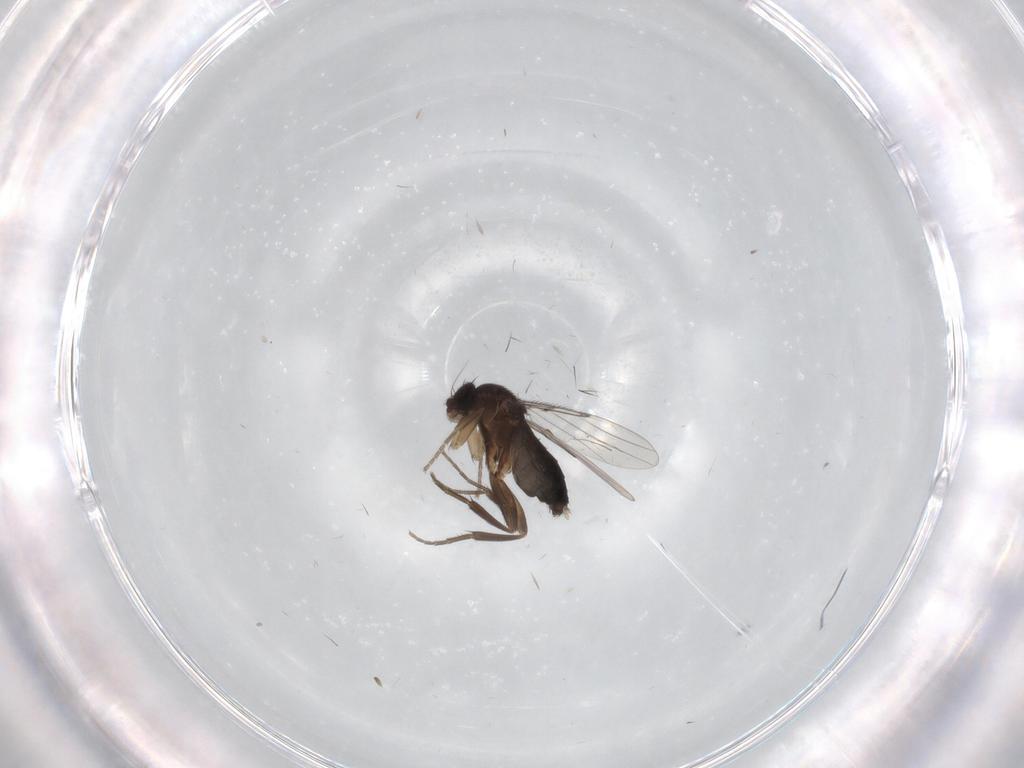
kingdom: Animalia
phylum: Arthropoda
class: Insecta
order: Diptera
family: Phoridae
